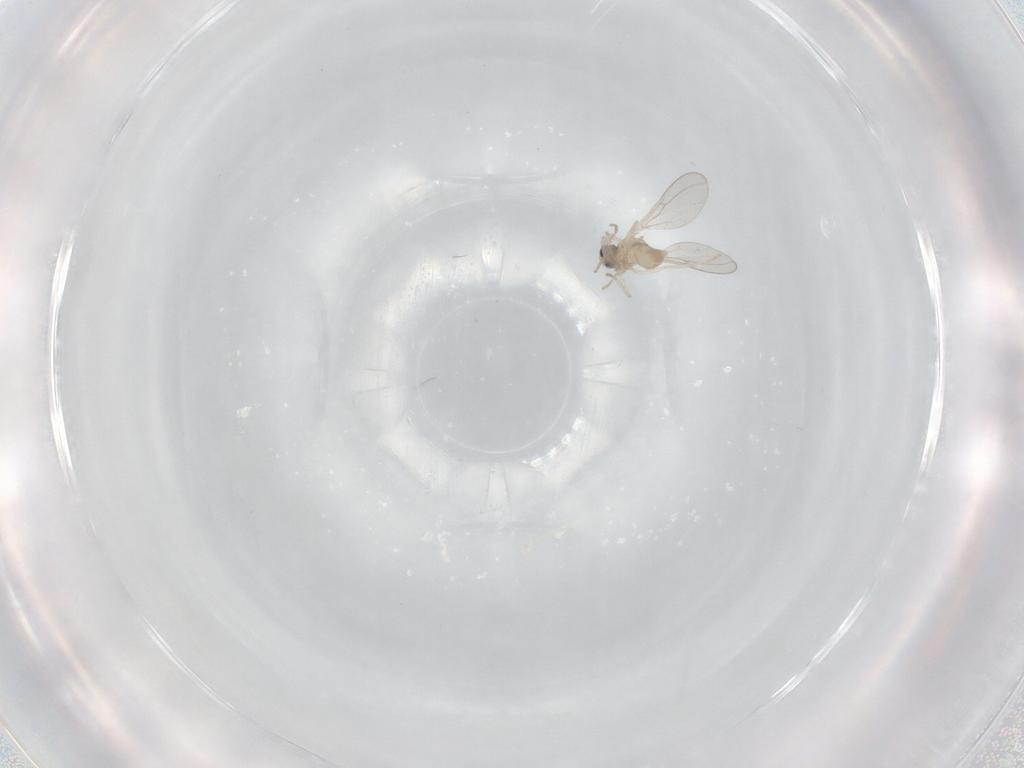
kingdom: Animalia
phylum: Arthropoda
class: Insecta
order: Diptera
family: Cecidomyiidae
